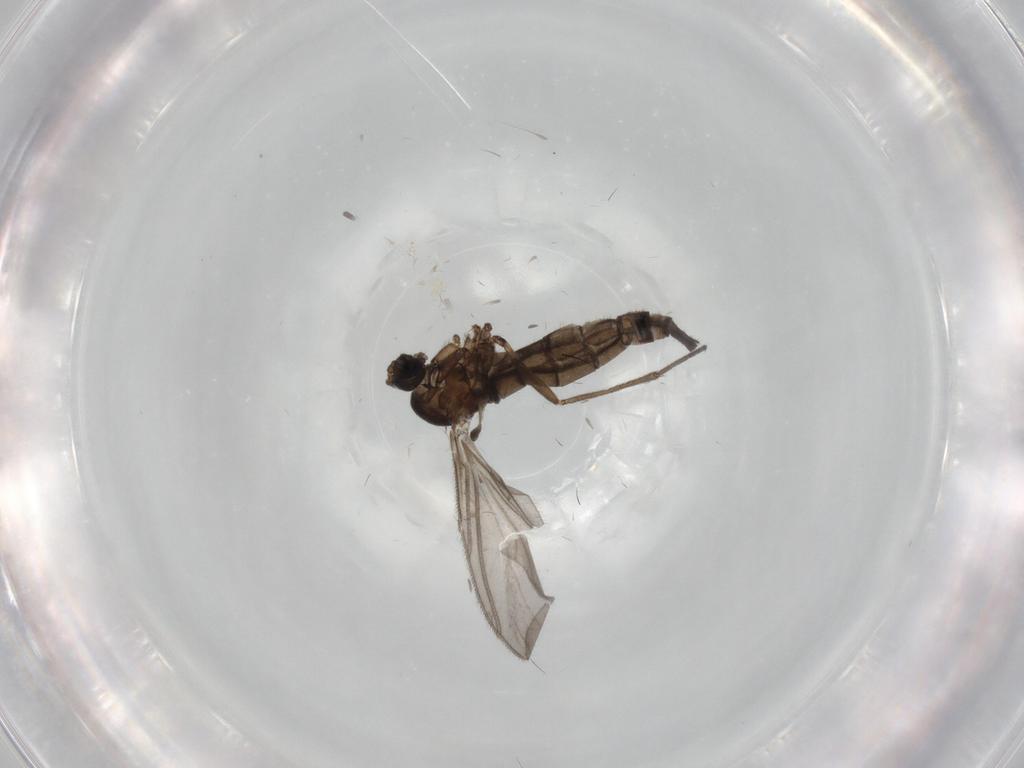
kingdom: Animalia
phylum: Arthropoda
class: Insecta
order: Diptera
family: Sciaridae
